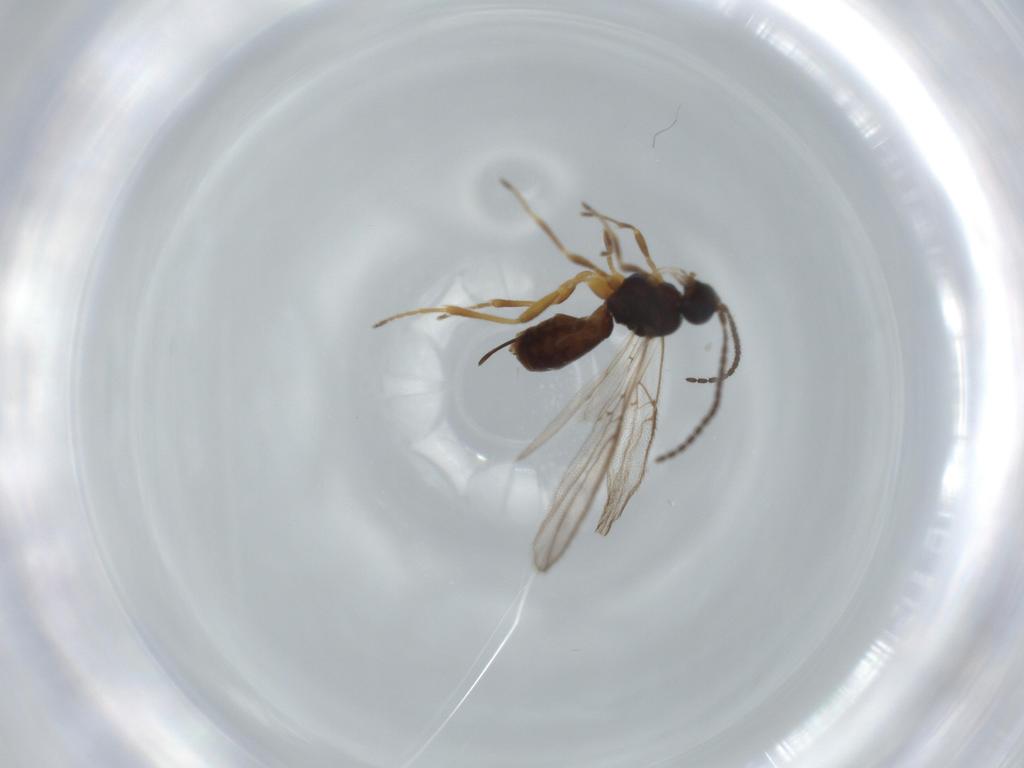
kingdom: Animalia
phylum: Arthropoda
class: Insecta
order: Hymenoptera
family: Braconidae
